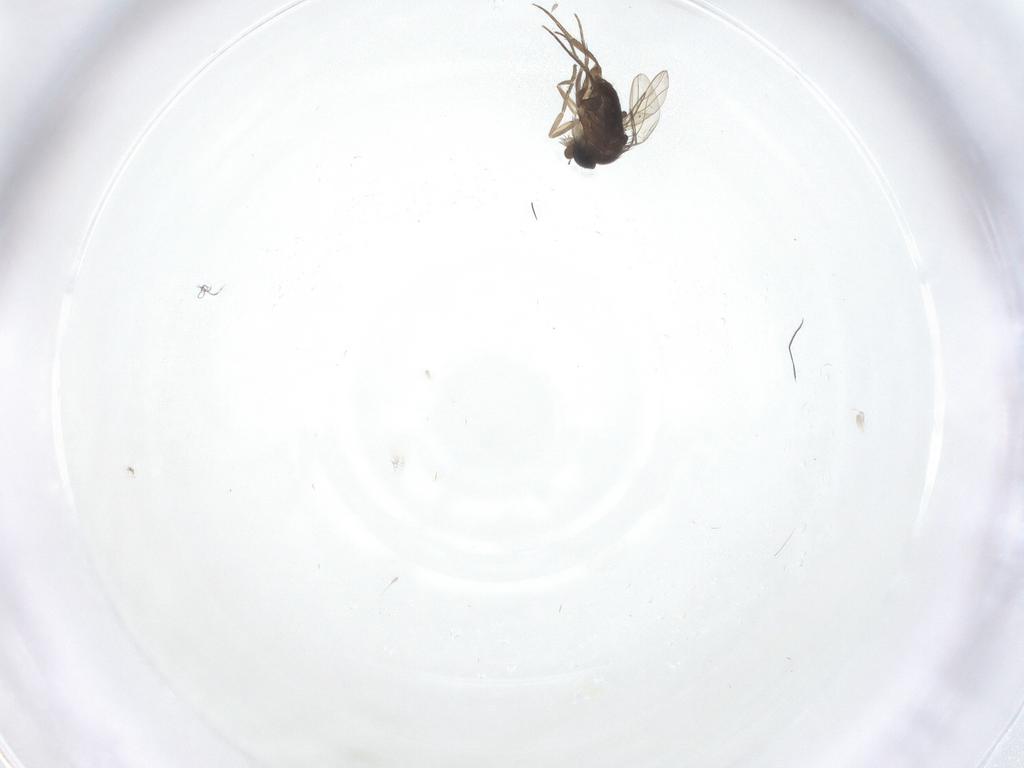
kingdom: Animalia
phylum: Arthropoda
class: Insecta
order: Diptera
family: Phoridae
